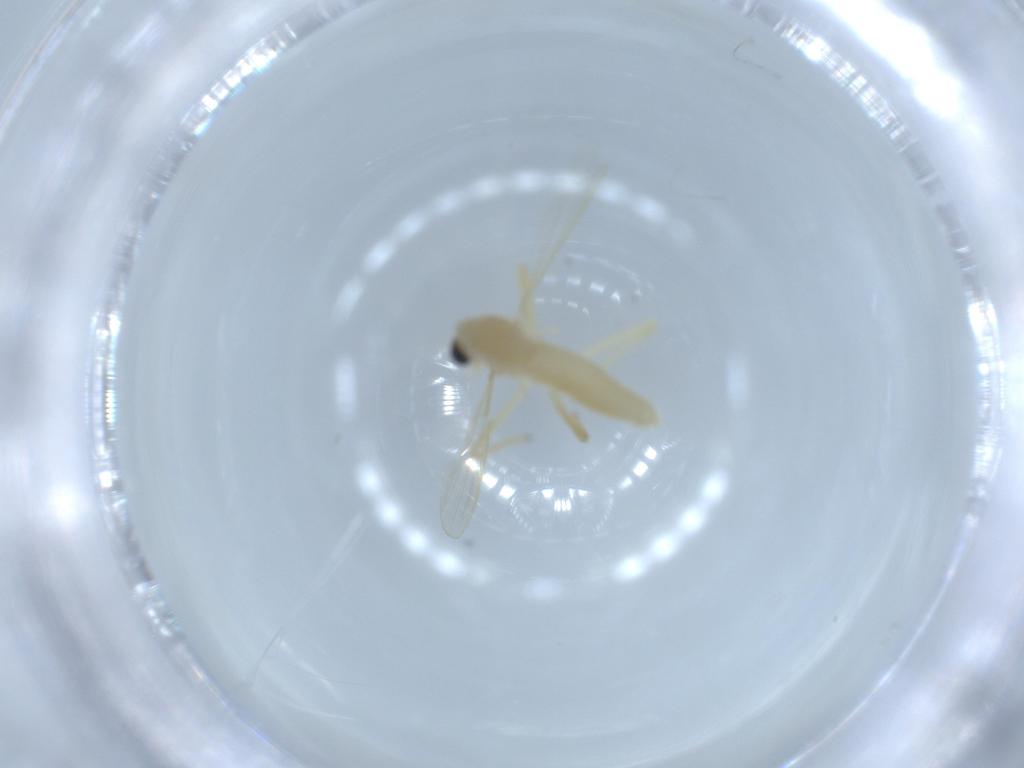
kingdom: Animalia
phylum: Arthropoda
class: Insecta
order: Diptera
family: Chironomidae
